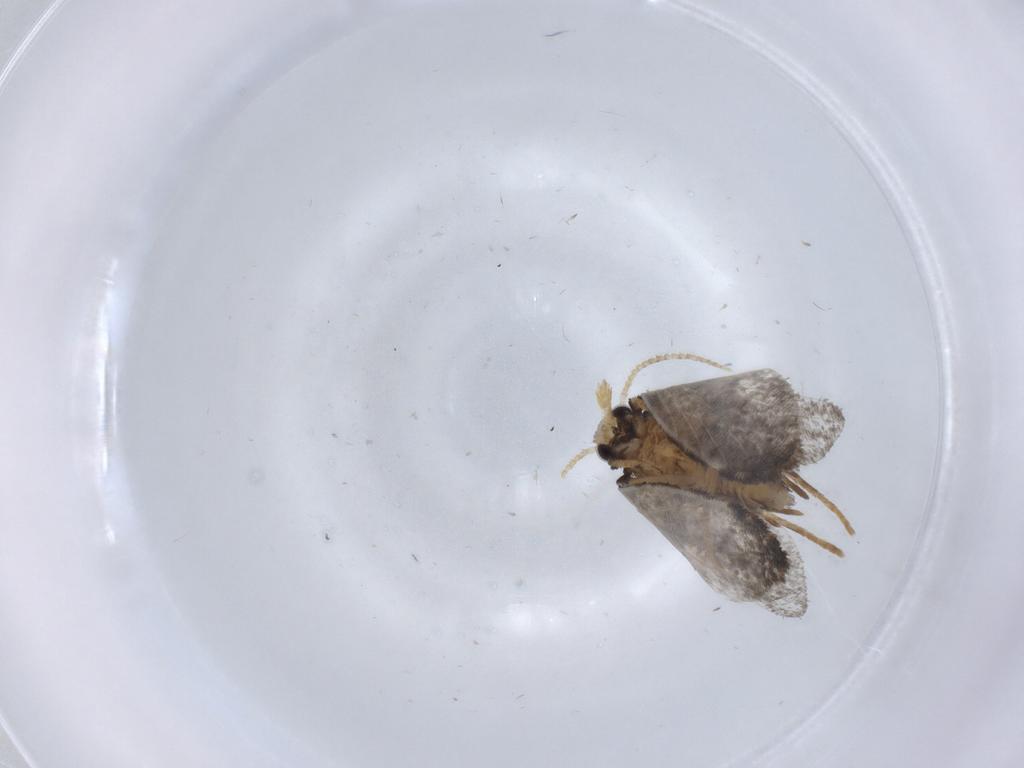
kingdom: Animalia
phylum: Arthropoda
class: Insecta
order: Lepidoptera
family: Psychidae
